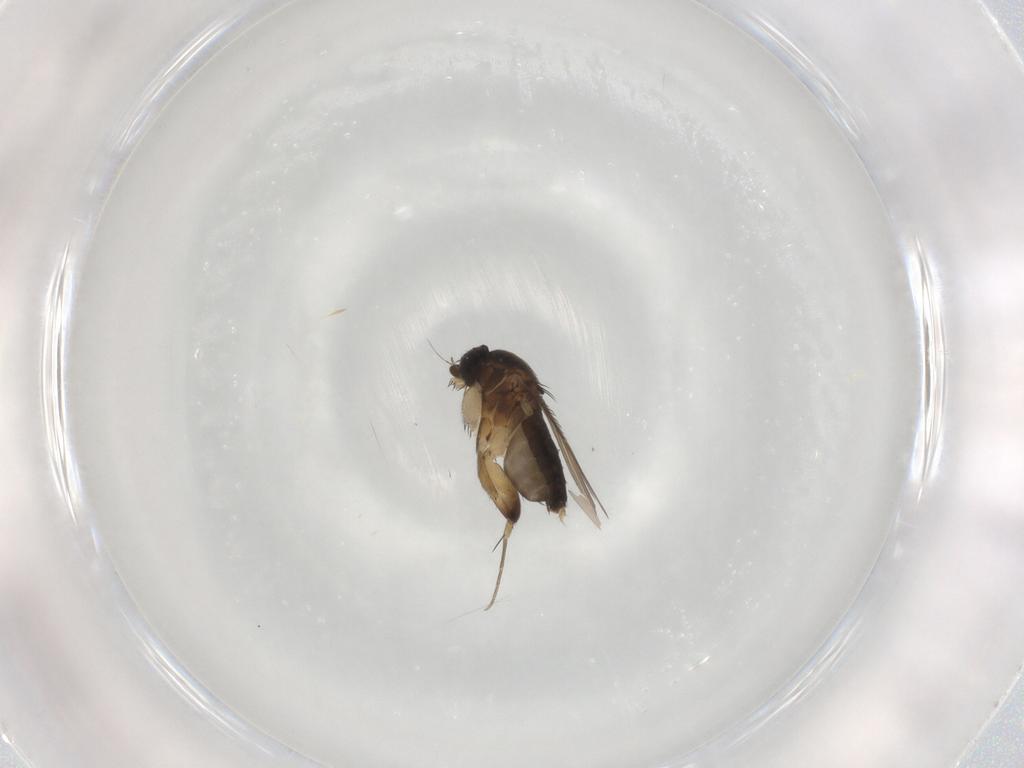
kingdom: Animalia
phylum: Arthropoda
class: Insecta
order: Diptera
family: Phoridae
